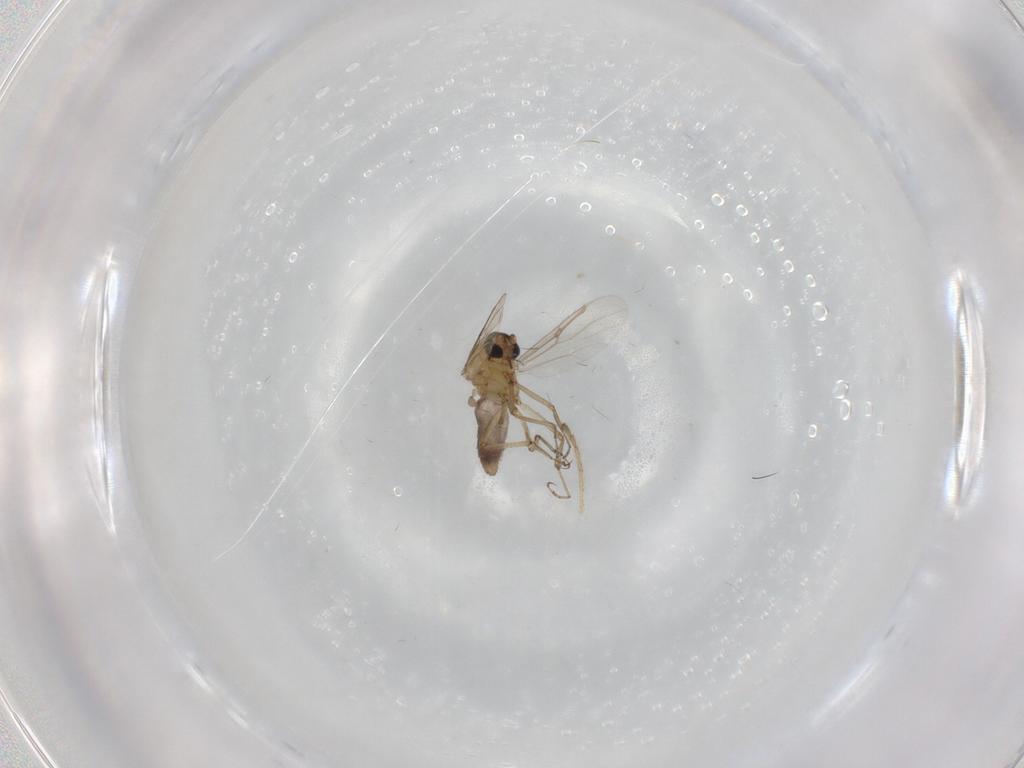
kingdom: Animalia
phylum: Arthropoda
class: Insecta
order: Diptera
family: Limoniidae
